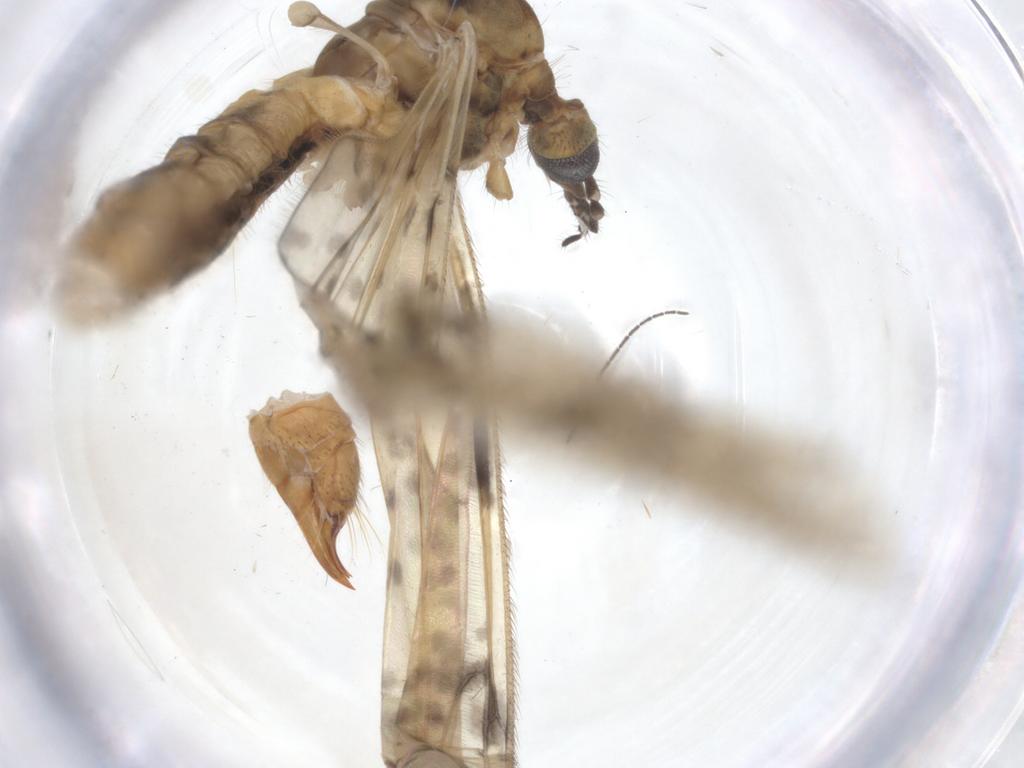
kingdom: Animalia
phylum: Arthropoda
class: Insecta
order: Diptera
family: Limoniidae
